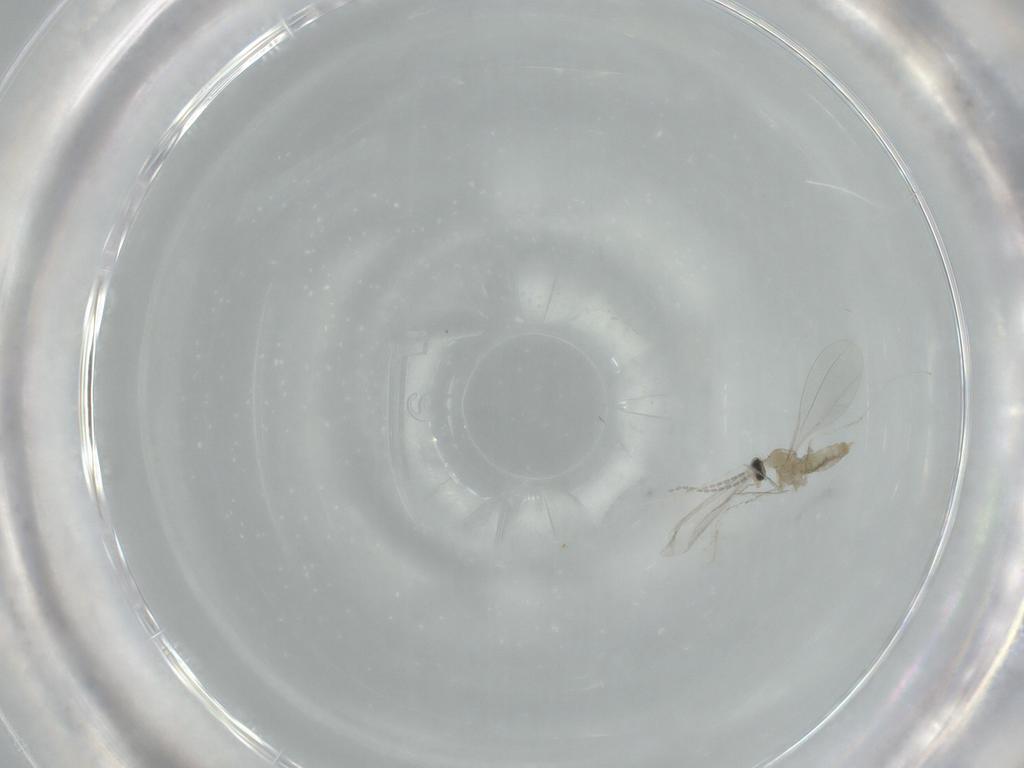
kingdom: Animalia
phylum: Arthropoda
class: Insecta
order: Diptera
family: Cecidomyiidae
